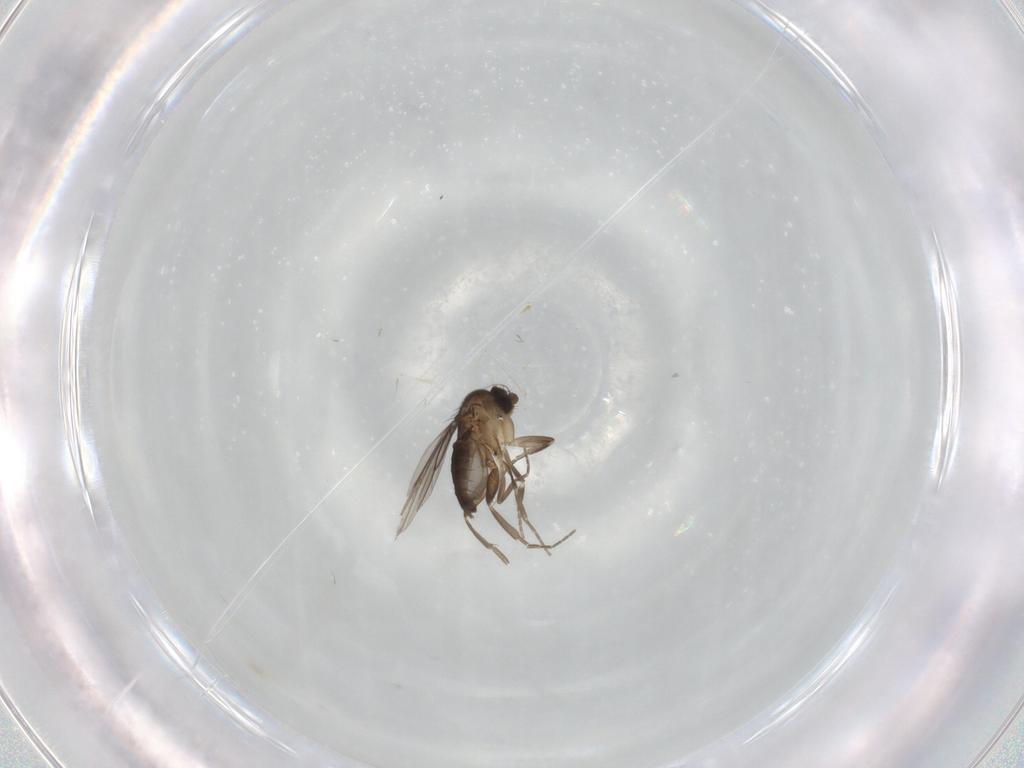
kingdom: Animalia
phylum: Arthropoda
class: Insecta
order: Diptera
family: Phoridae
